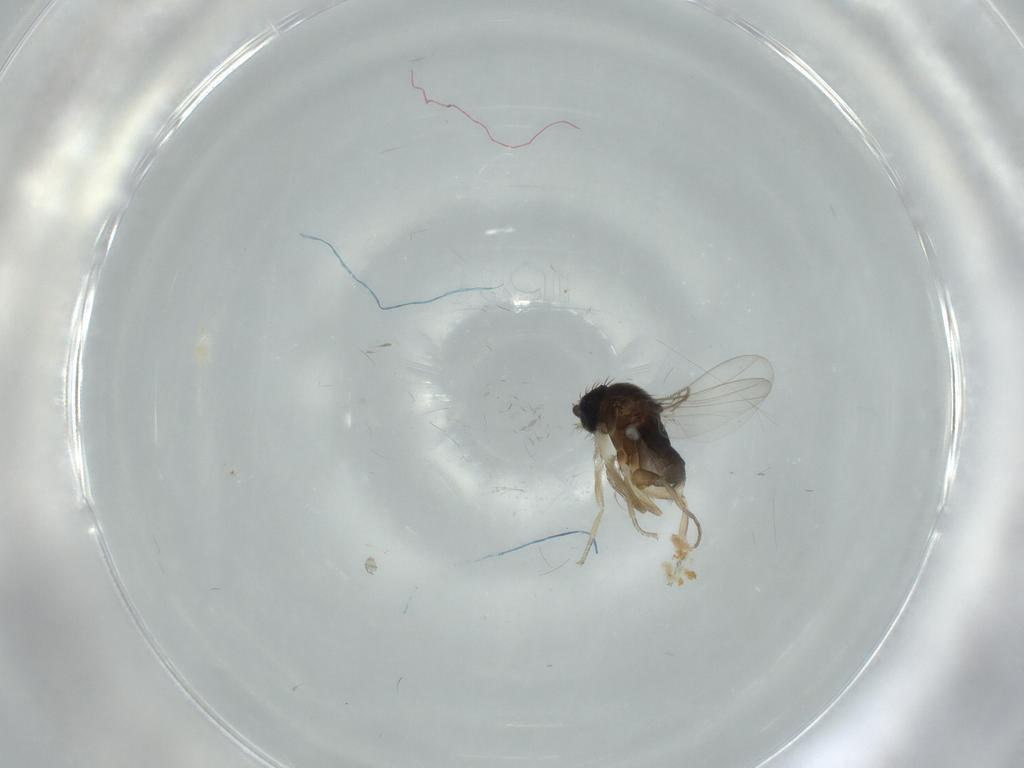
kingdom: Animalia
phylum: Arthropoda
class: Insecta
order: Diptera
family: Phoridae
